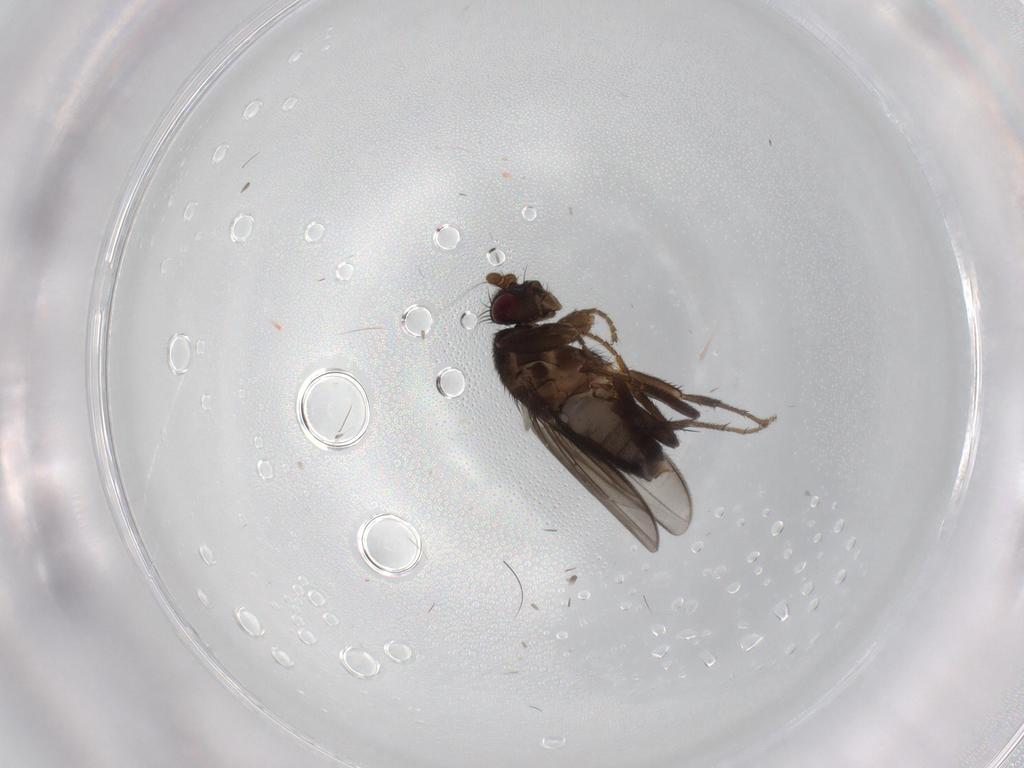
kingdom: Animalia
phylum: Arthropoda
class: Insecta
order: Diptera
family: Sphaeroceridae
